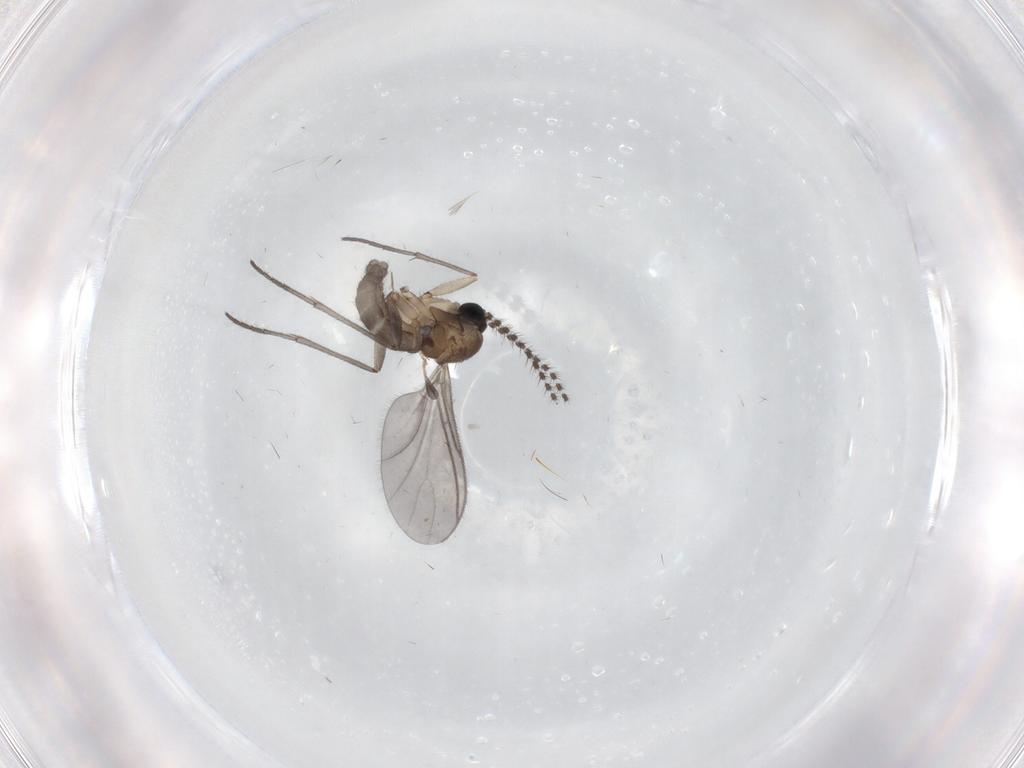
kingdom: Animalia
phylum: Arthropoda
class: Insecta
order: Diptera
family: Sciaridae
